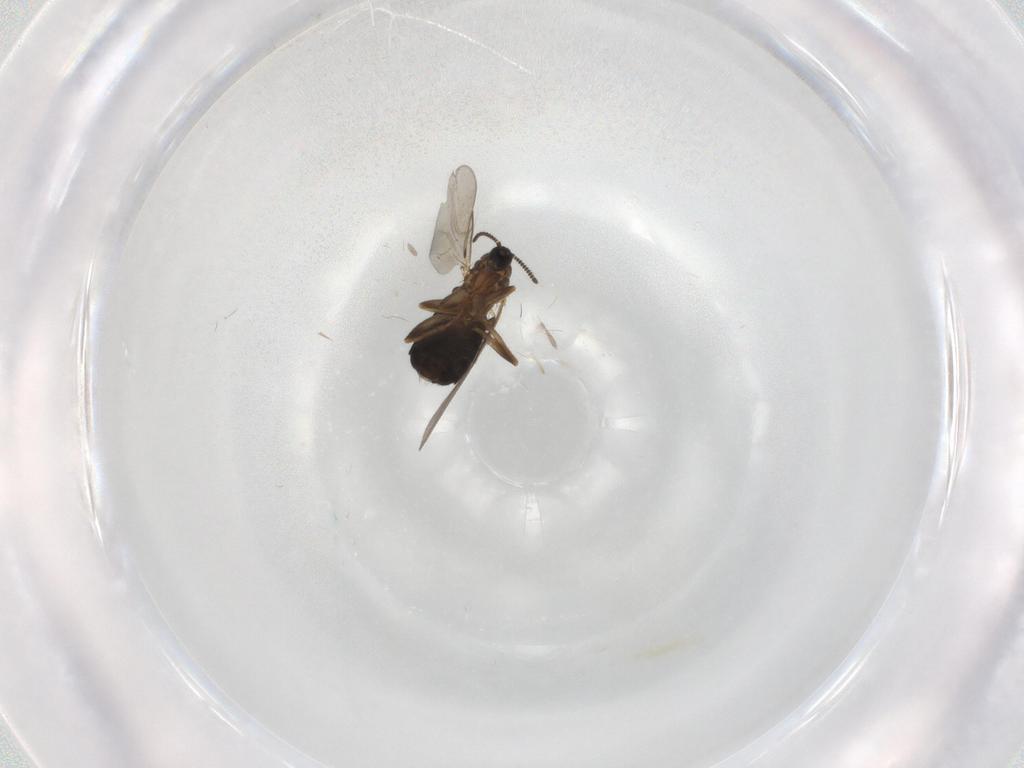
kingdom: Animalia
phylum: Arthropoda
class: Insecta
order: Diptera
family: Scatopsidae
